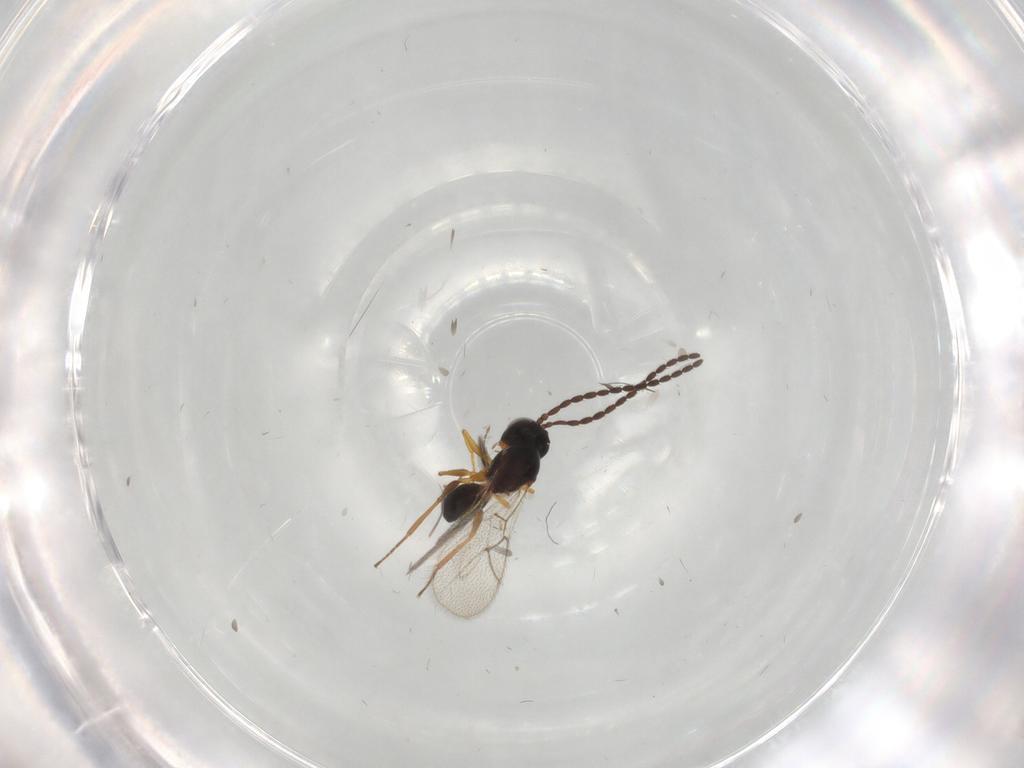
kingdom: Animalia
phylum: Arthropoda
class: Insecta
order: Hymenoptera
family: Figitidae
